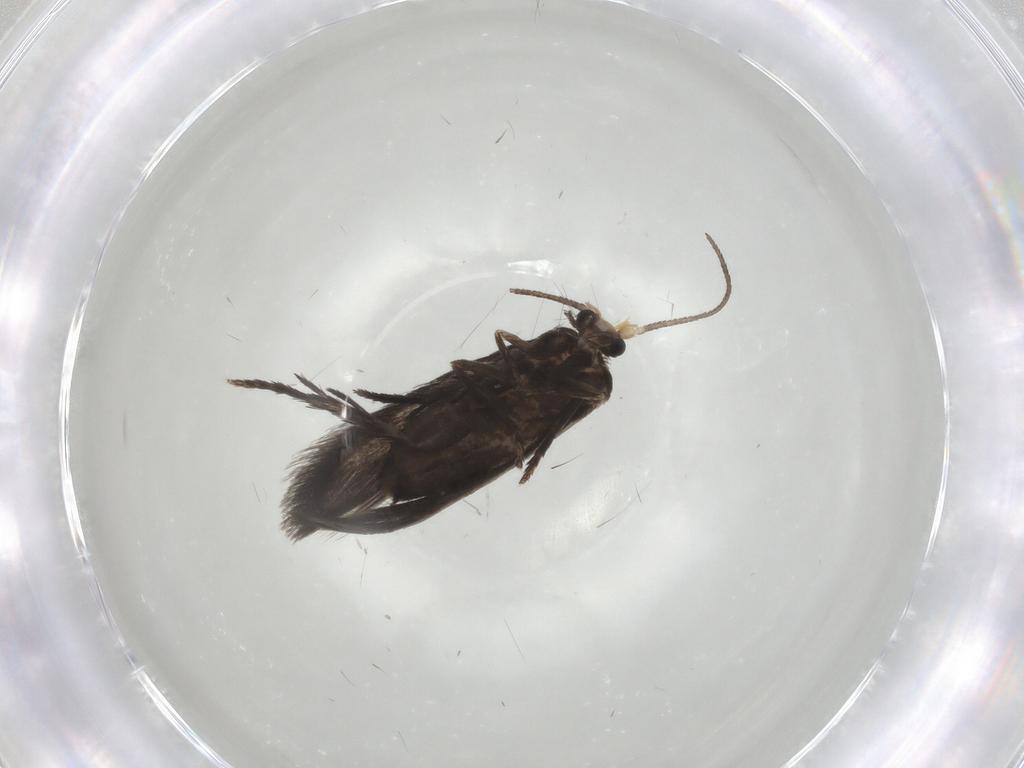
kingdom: Animalia
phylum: Arthropoda
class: Insecta
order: Lepidoptera
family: Nepticulidae
